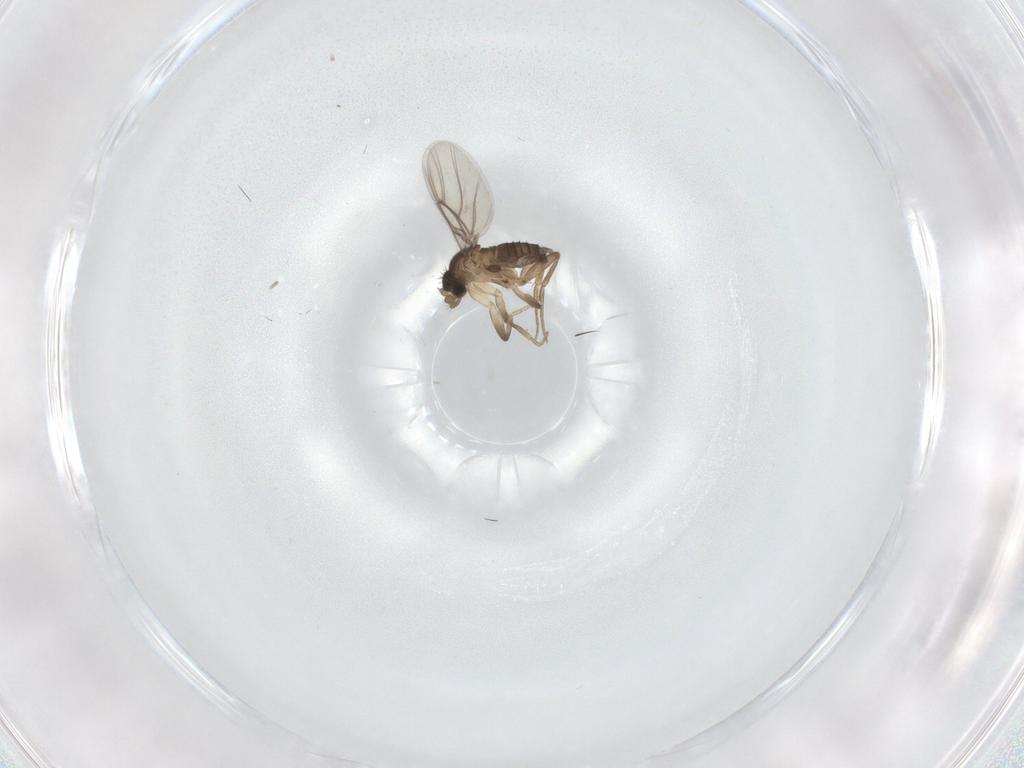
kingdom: Animalia
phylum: Arthropoda
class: Insecta
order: Diptera
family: Phoridae
